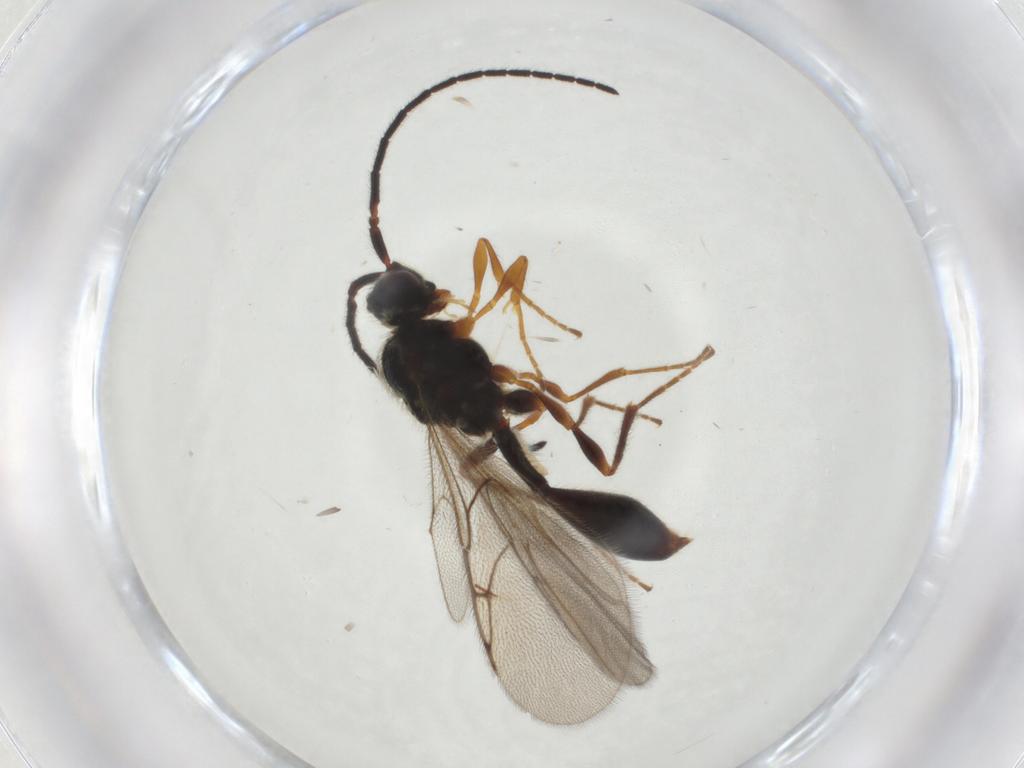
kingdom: Animalia
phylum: Arthropoda
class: Insecta
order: Hymenoptera
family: Braconidae
